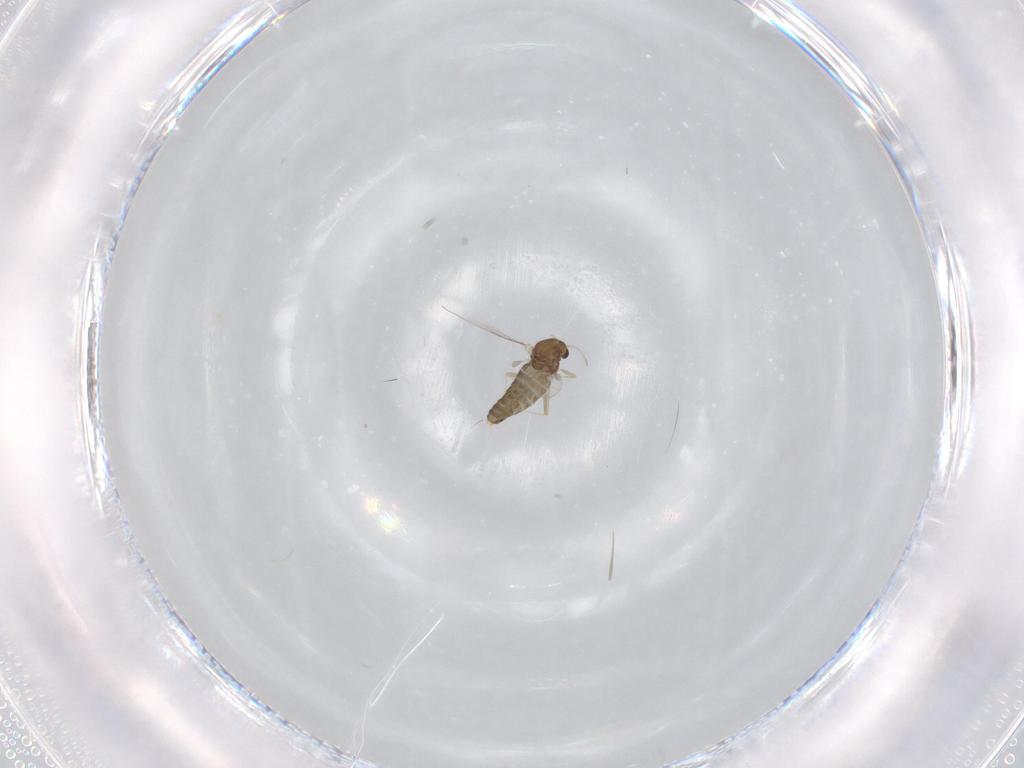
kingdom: Animalia
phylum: Arthropoda
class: Insecta
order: Diptera
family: Chironomidae
